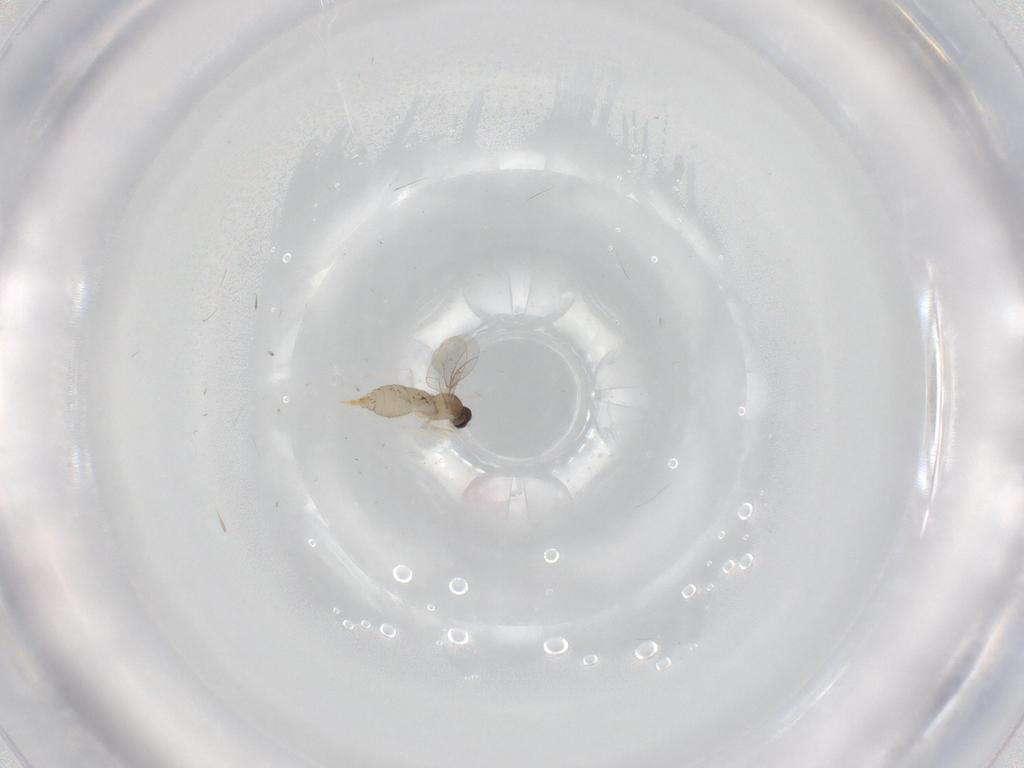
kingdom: Animalia
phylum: Arthropoda
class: Insecta
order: Diptera
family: Cecidomyiidae
